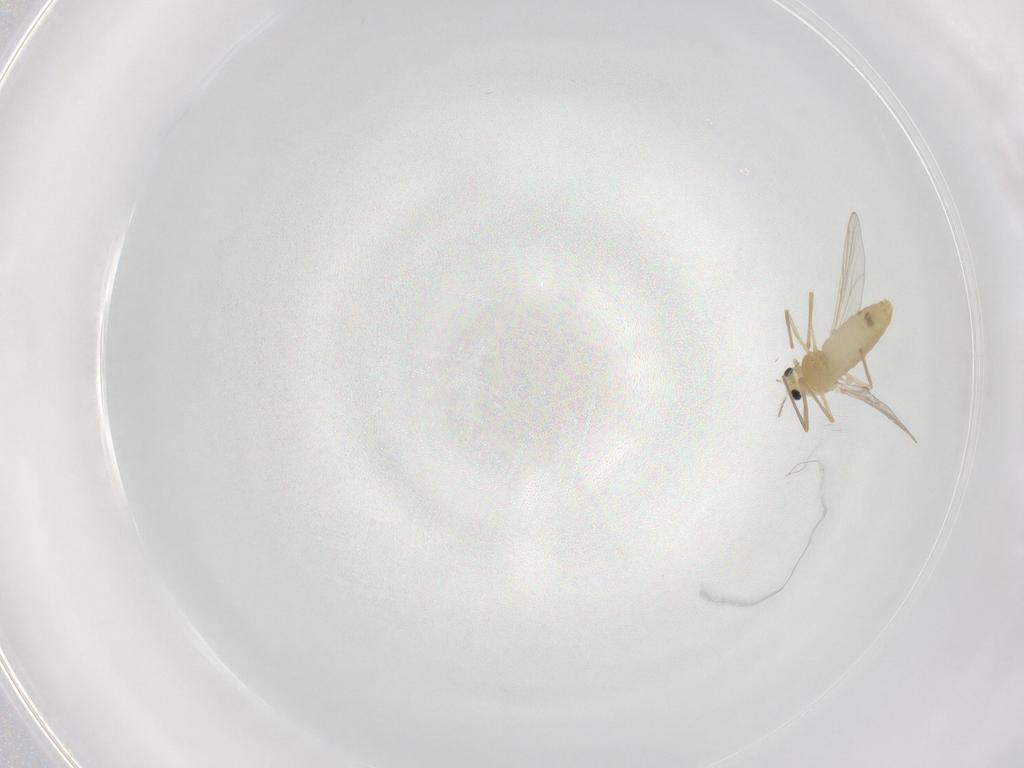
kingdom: Animalia
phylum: Arthropoda
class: Insecta
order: Diptera
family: Chironomidae
